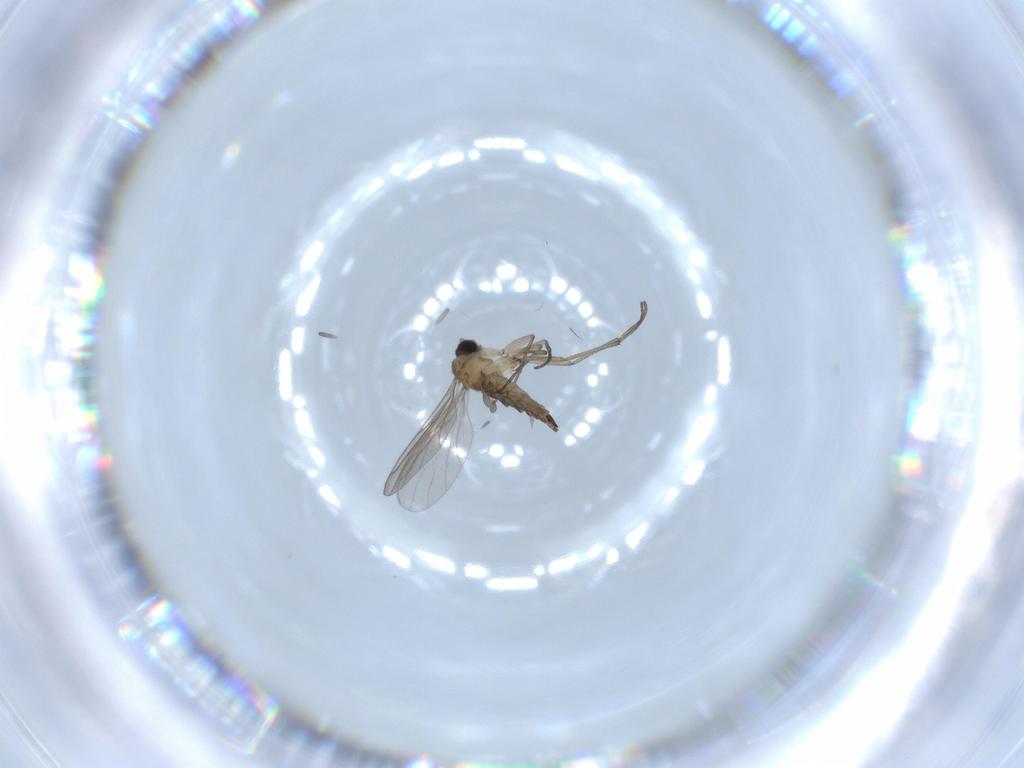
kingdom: Animalia
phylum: Arthropoda
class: Insecta
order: Diptera
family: Sciaridae
